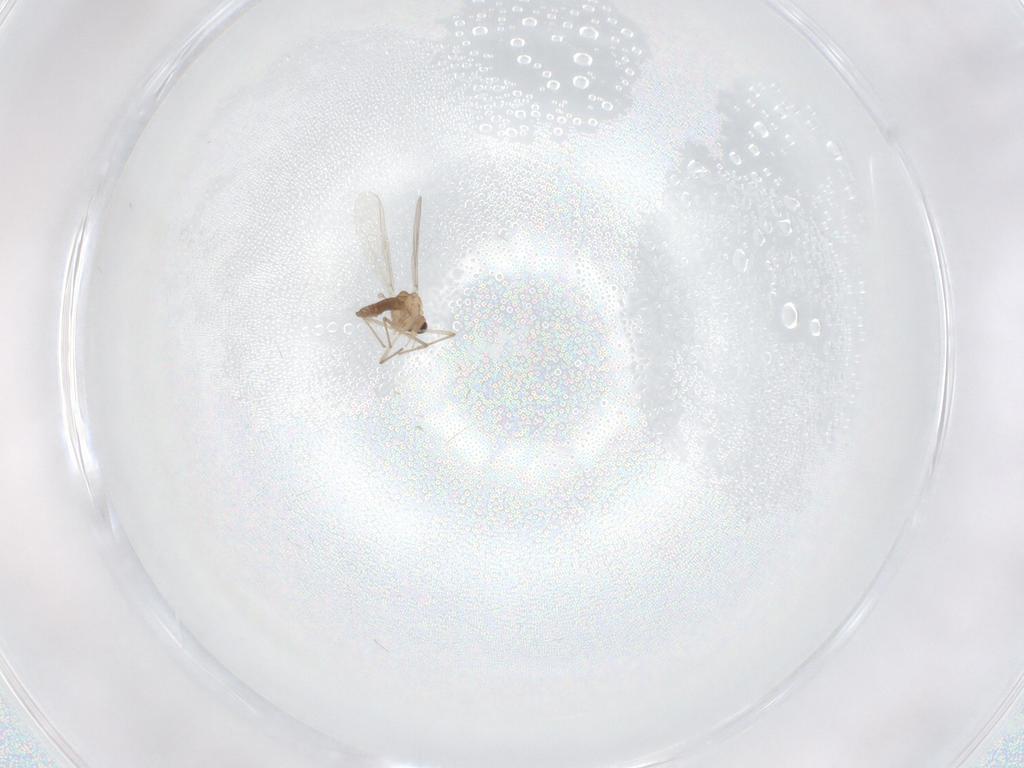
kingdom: Animalia
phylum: Arthropoda
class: Insecta
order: Diptera
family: Chironomidae
